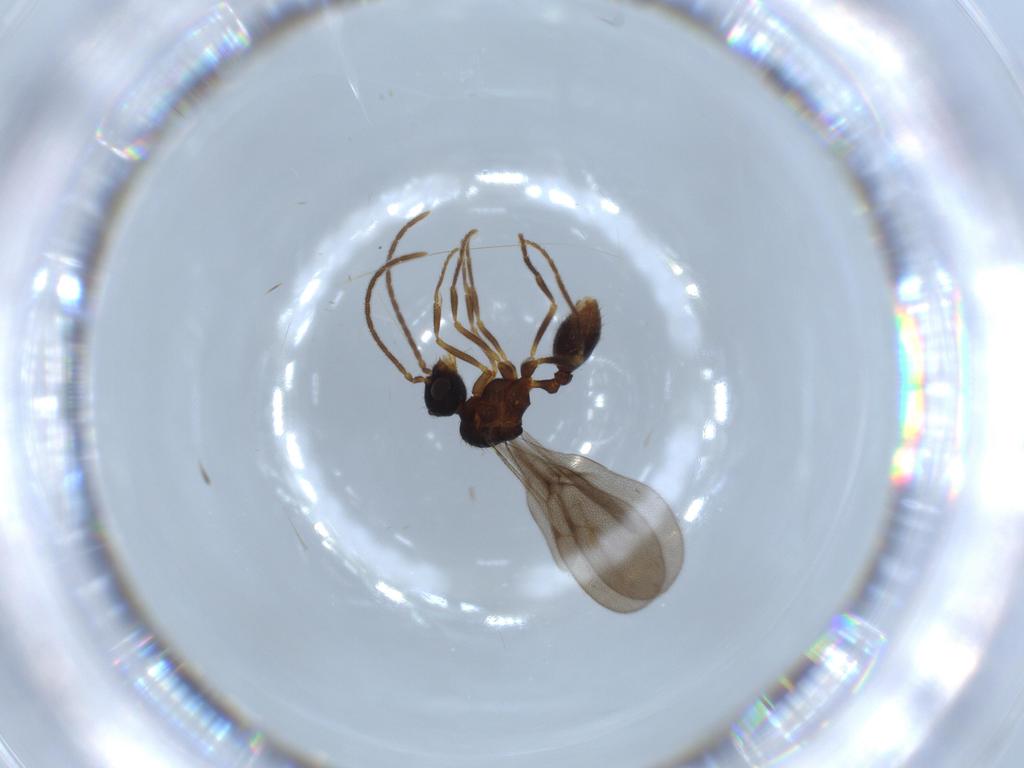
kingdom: Animalia
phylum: Arthropoda
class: Insecta
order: Hymenoptera
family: Formicidae
